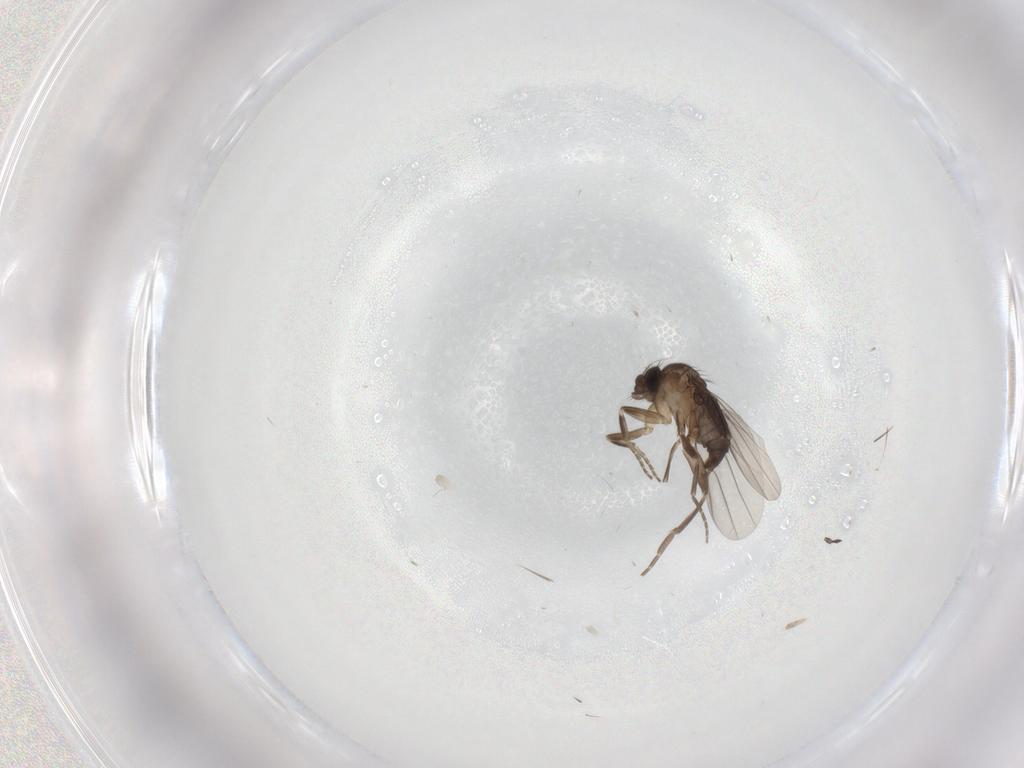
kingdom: Animalia
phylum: Arthropoda
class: Insecta
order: Diptera
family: Sciaridae
